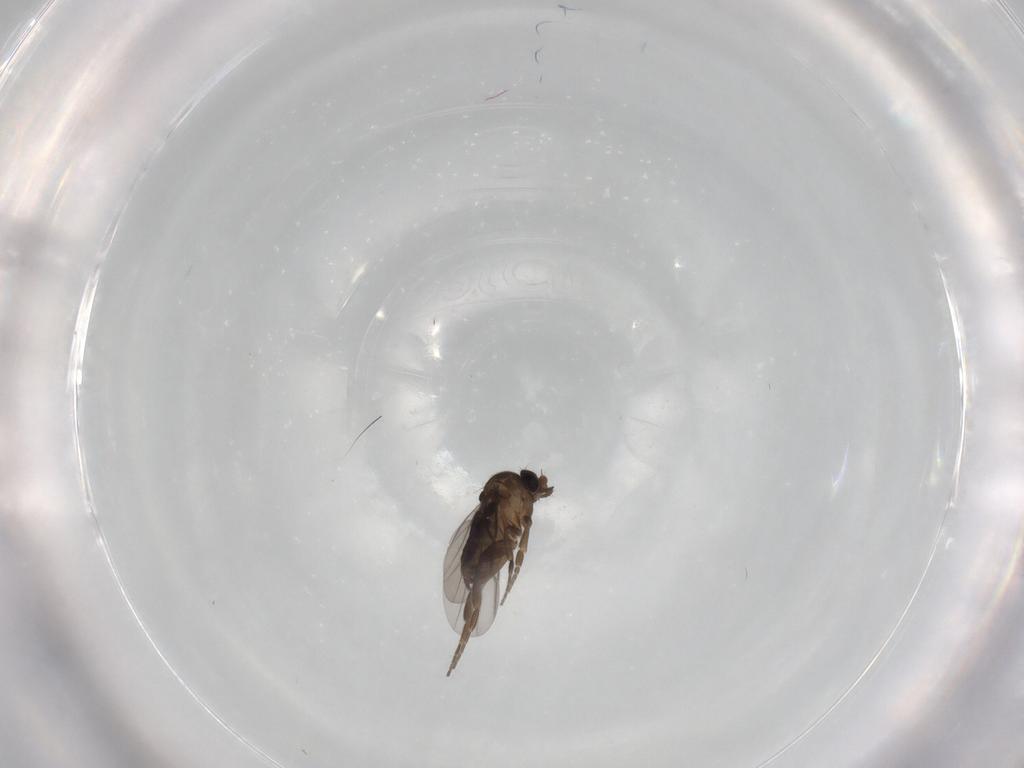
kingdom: Animalia
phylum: Arthropoda
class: Insecta
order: Diptera
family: Phoridae
